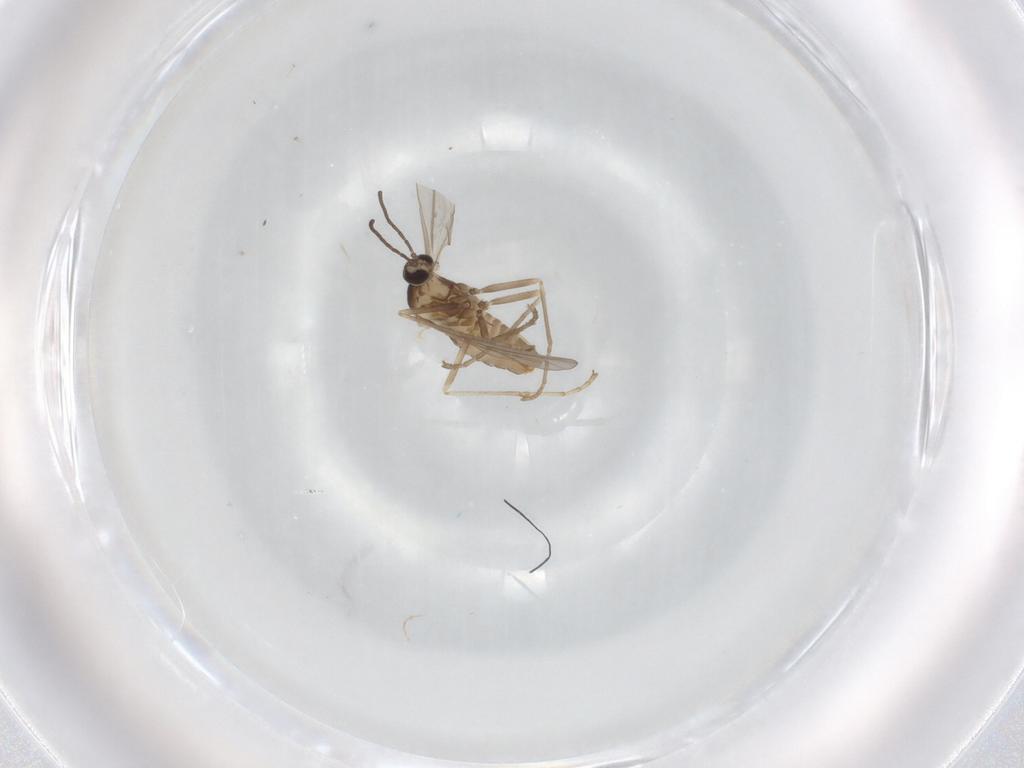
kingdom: Animalia
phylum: Arthropoda
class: Insecta
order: Diptera
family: Cecidomyiidae
